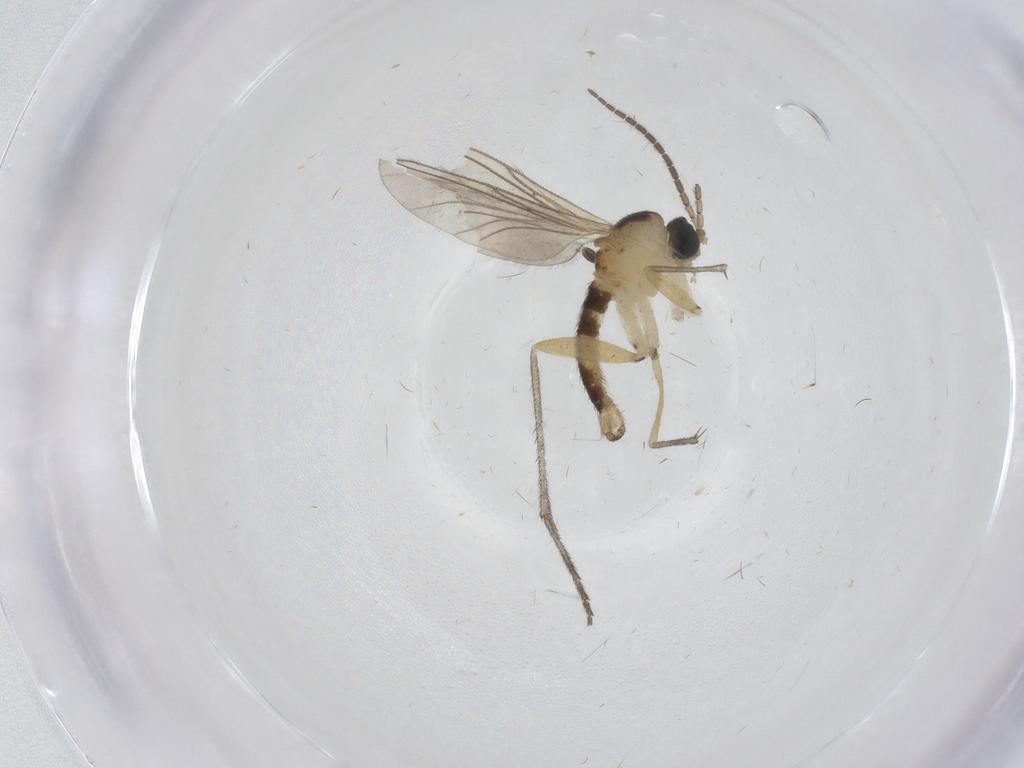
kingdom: Animalia
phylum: Arthropoda
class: Insecta
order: Diptera
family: Sciaridae
